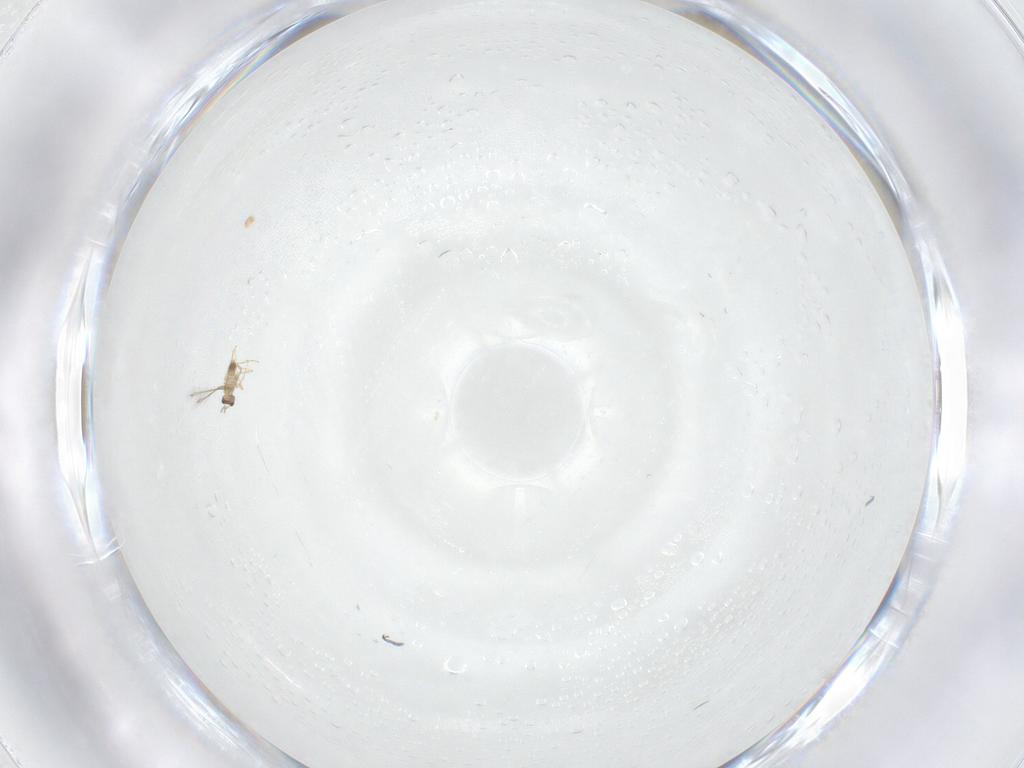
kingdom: Animalia
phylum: Arthropoda
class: Insecta
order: Hymenoptera
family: Mymaridae
